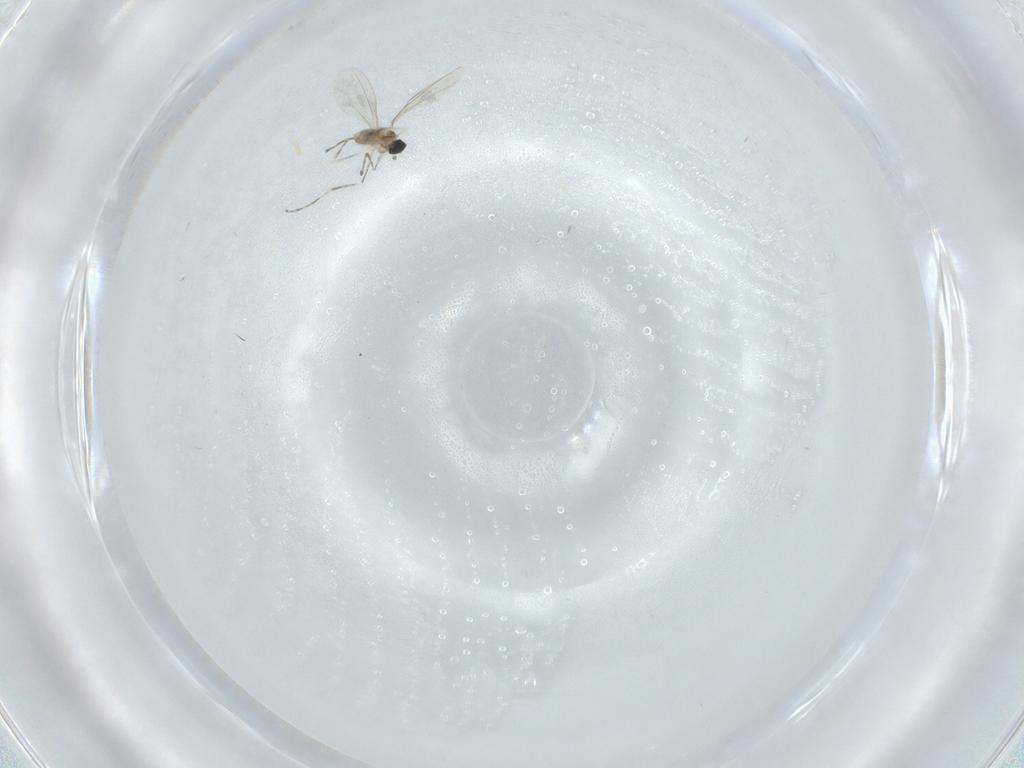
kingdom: Animalia
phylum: Arthropoda
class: Insecta
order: Diptera
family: Cecidomyiidae
